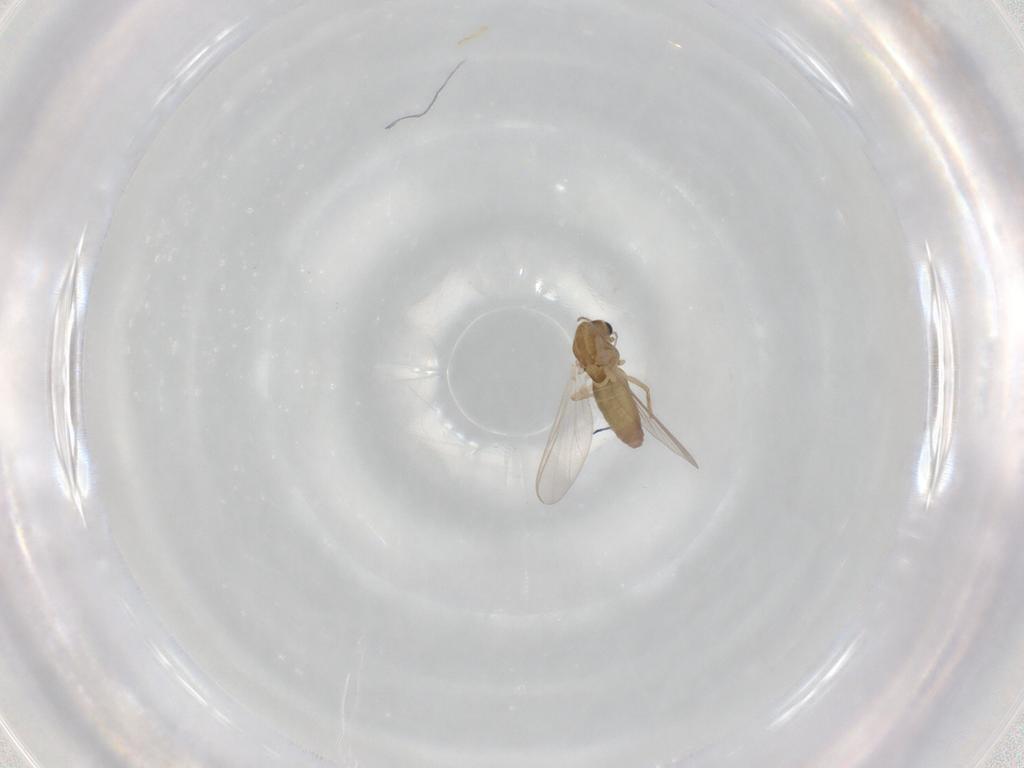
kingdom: Animalia
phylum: Arthropoda
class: Insecta
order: Diptera
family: Chironomidae
